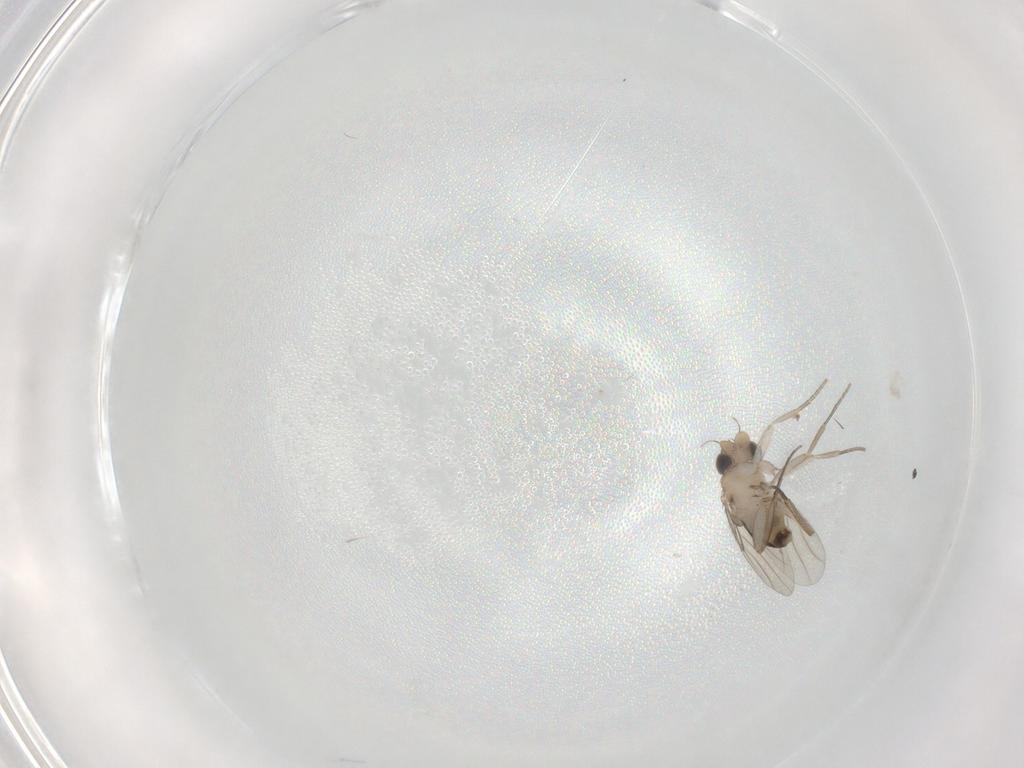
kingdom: Animalia
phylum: Arthropoda
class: Insecta
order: Diptera
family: Phoridae
